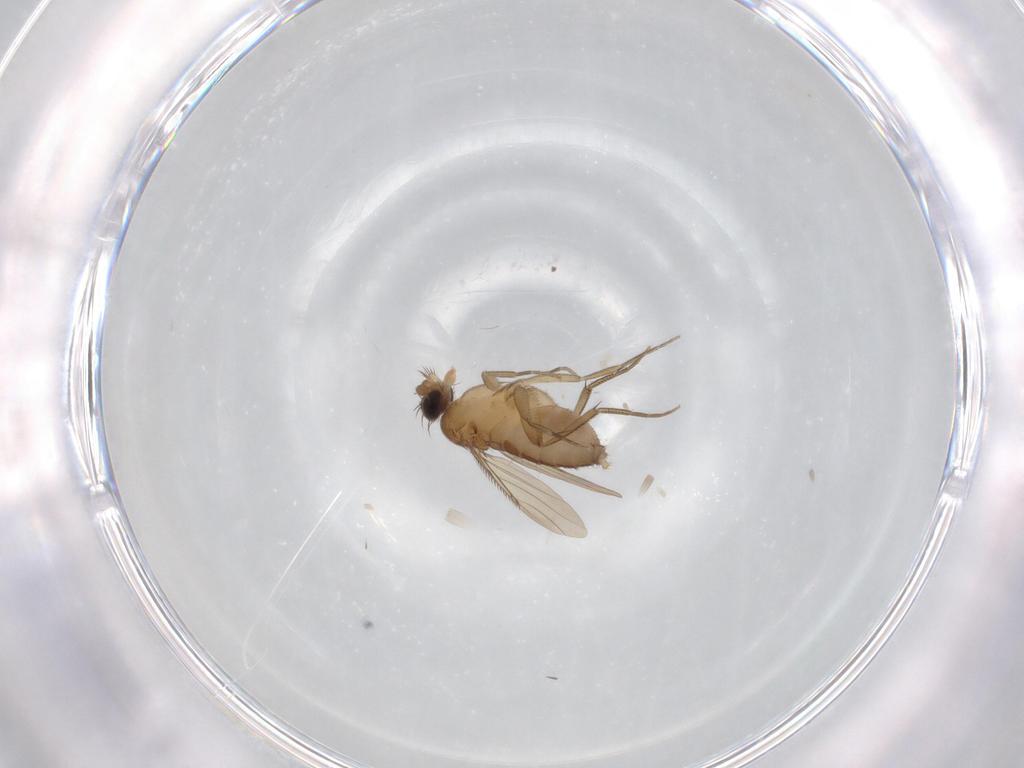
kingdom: Animalia
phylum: Arthropoda
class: Insecta
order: Diptera
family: Phoridae
